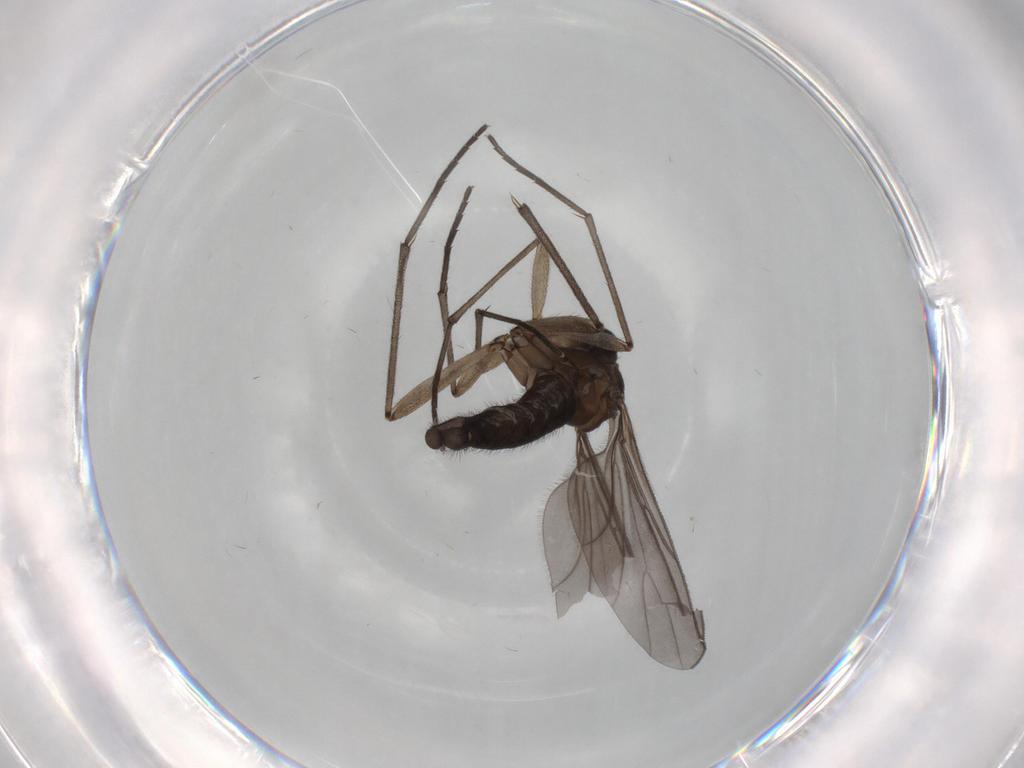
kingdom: Animalia
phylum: Arthropoda
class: Insecta
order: Diptera
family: Sciaridae
